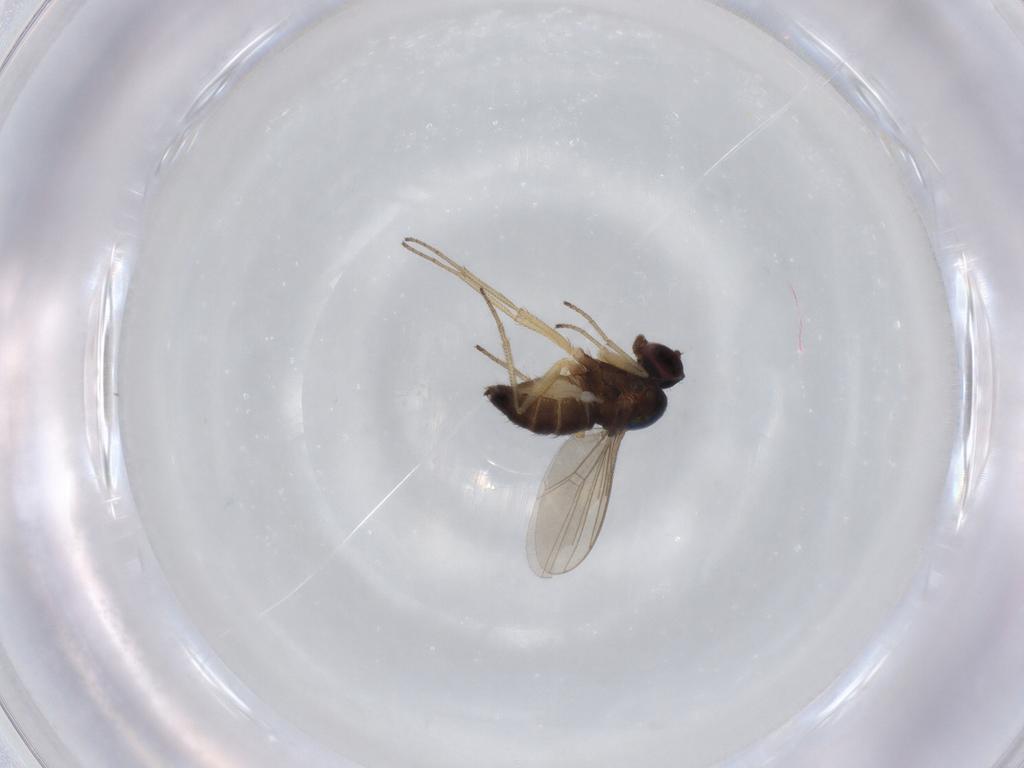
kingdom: Animalia
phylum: Arthropoda
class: Insecta
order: Diptera
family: Dolichopodidae
